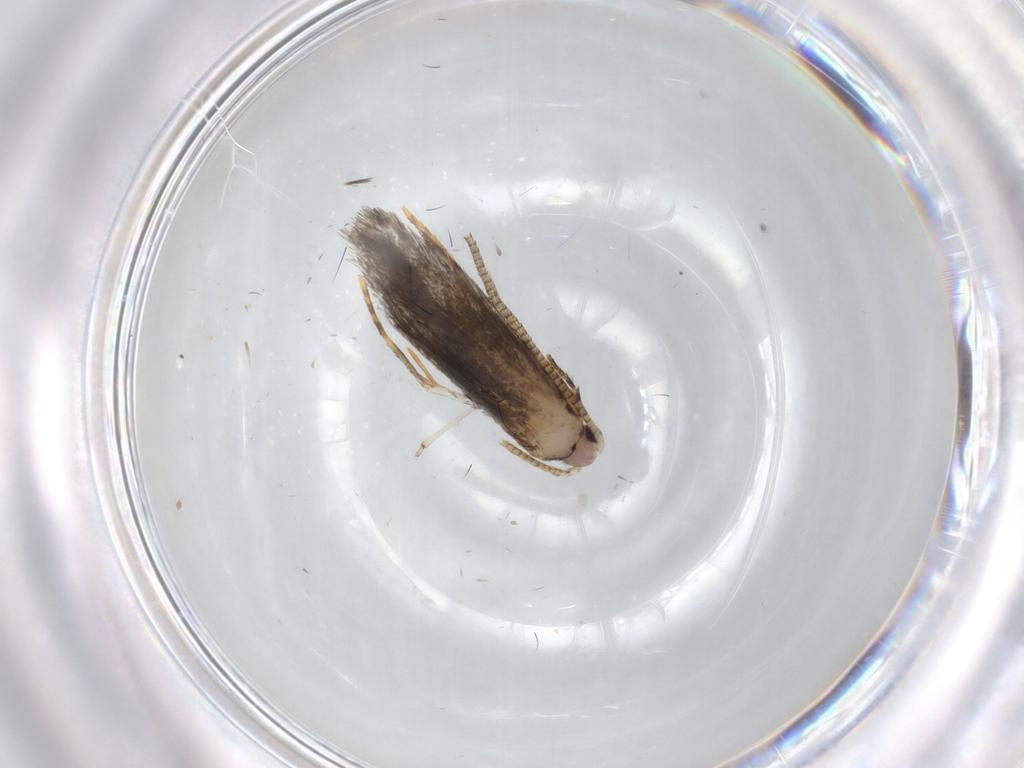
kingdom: Animalia
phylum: Arthropoda
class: Insecta
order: Lepidoptera
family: Tineidae
